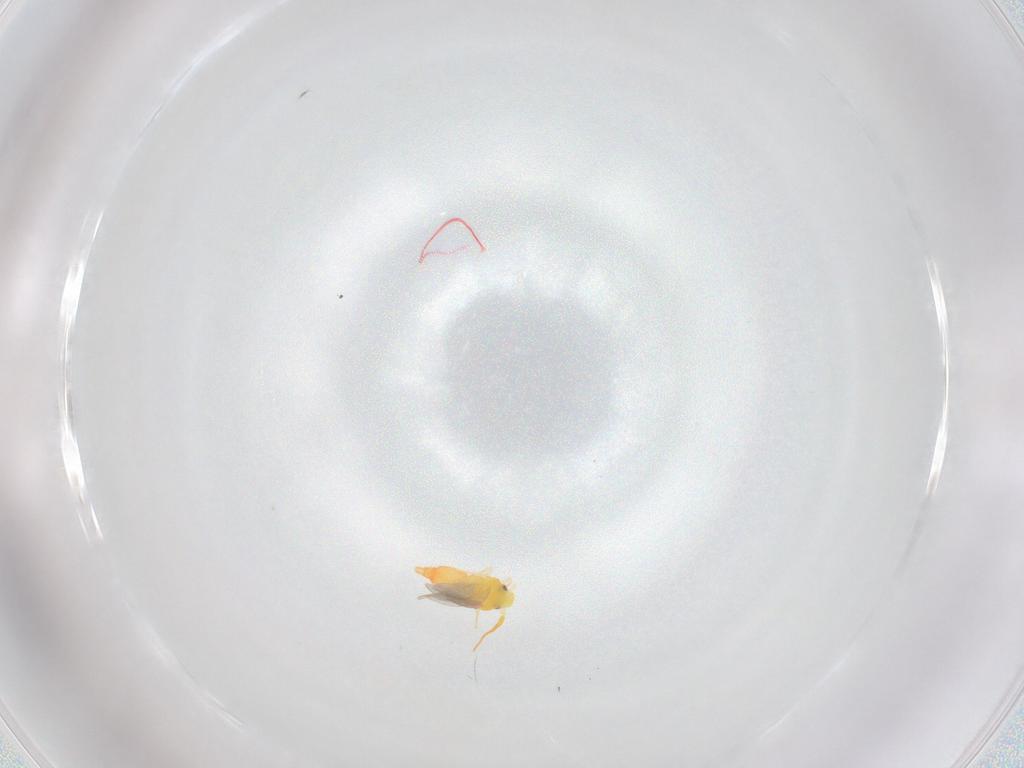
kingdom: Animalia
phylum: Arthropoda
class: Insecta
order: Hemiptera
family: Aleyrodidae
